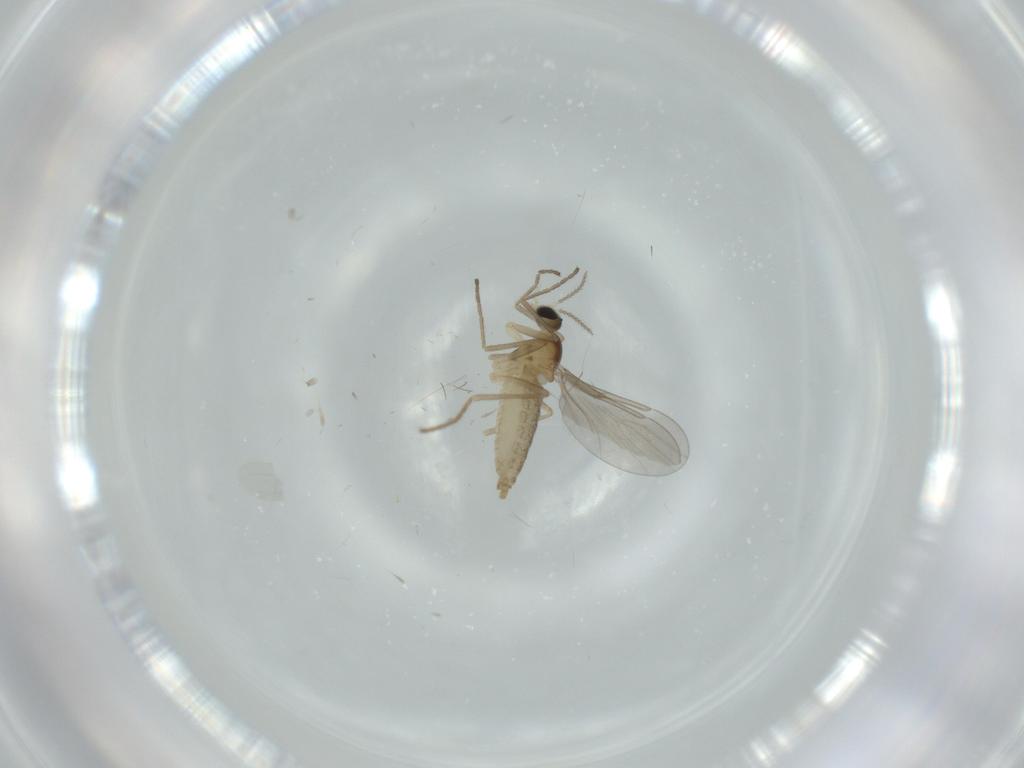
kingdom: Animalia
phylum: Arthropoda
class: Insecta
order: Diptera
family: Cecidomyiidae
